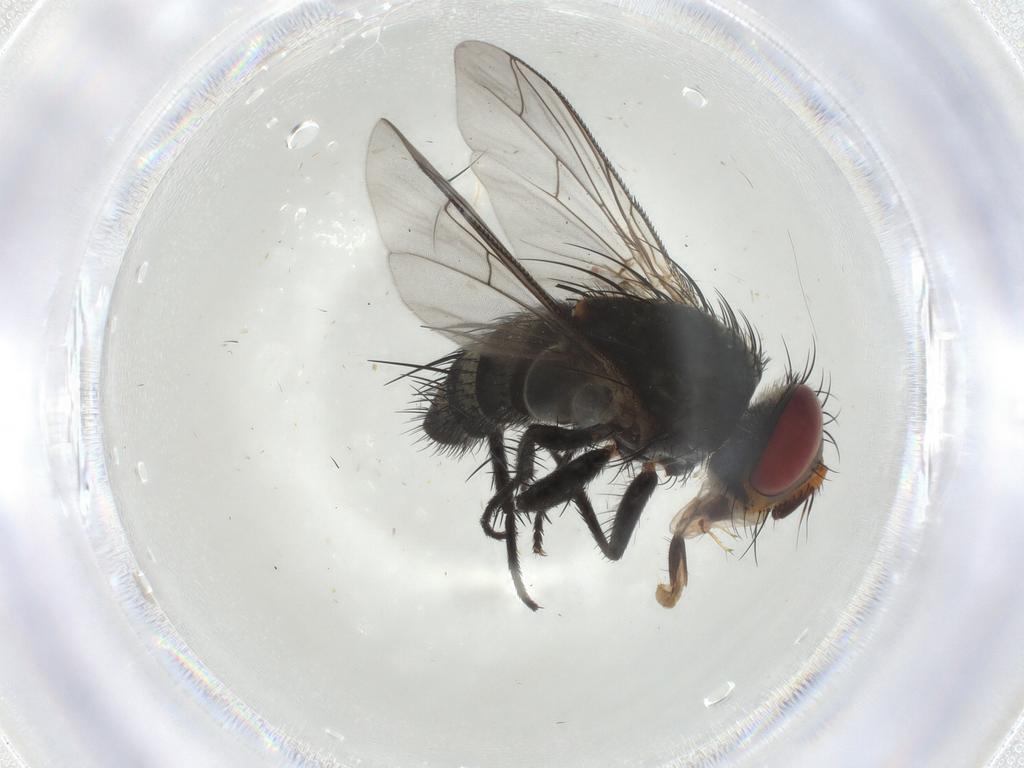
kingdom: Animalia
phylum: Arthropoda
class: Insecta
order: Diptera
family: Tachinidae
